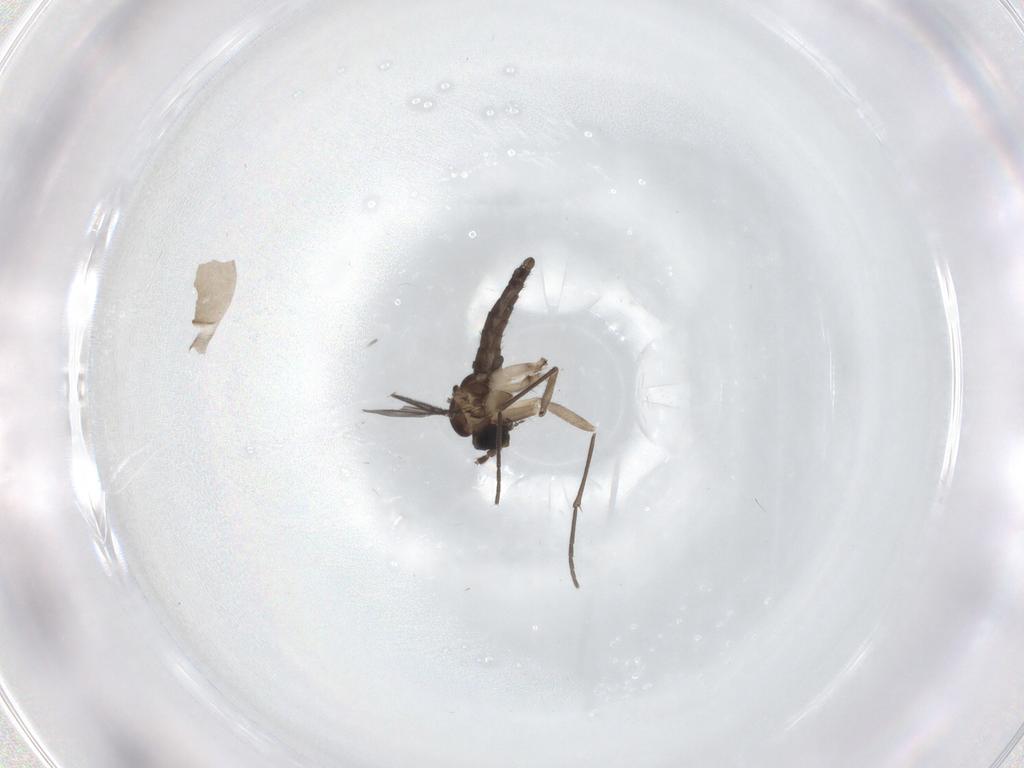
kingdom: Animalia
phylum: Arthropoda
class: Insecta
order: Diptera
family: Sciaridae
